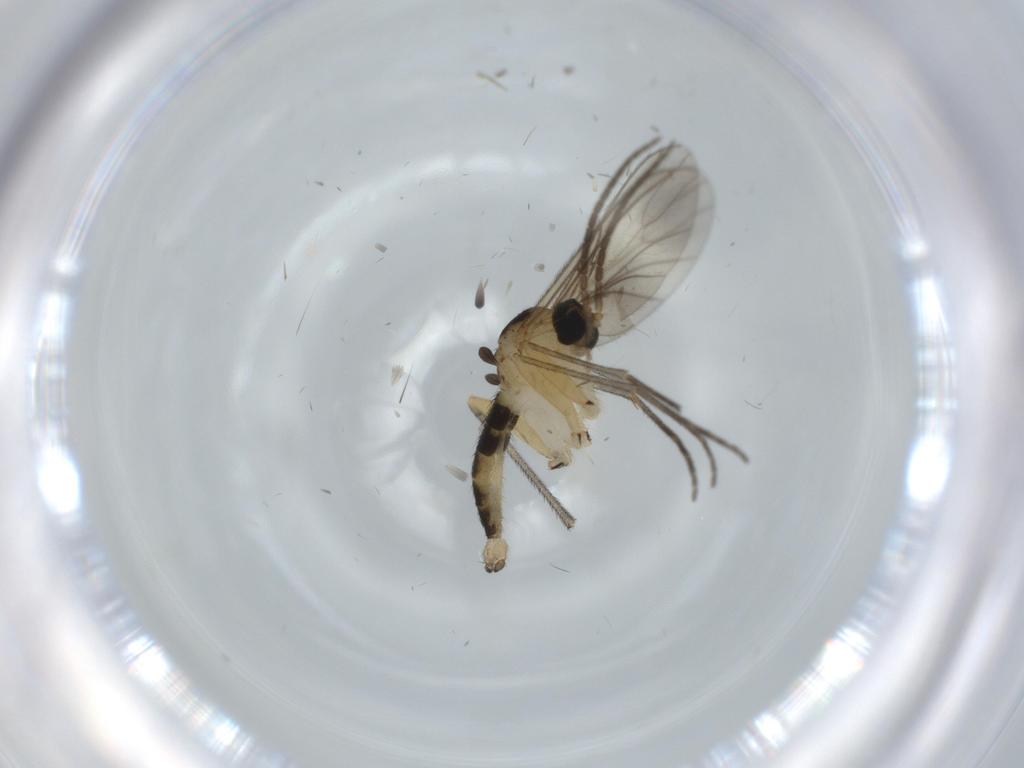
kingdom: Animalia
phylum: Arthropoda
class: Insecta
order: Diptera
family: Sciaridae
